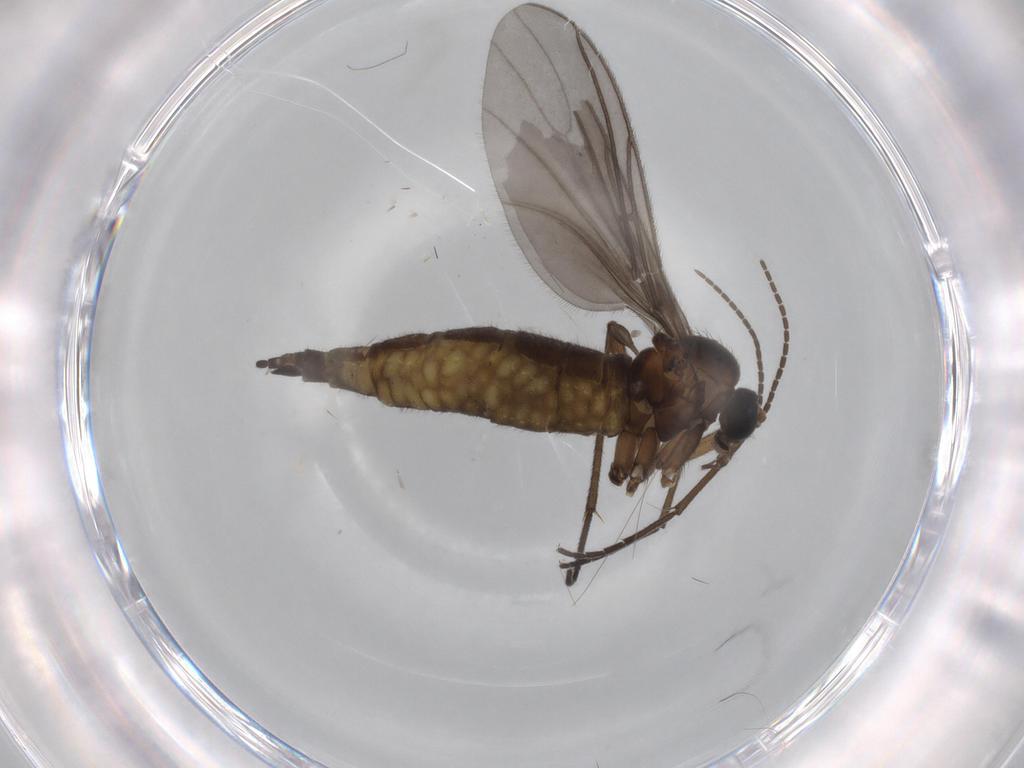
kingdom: Animalia
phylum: Arthropoda
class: Insecta
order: Diptera
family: Sciaridae
